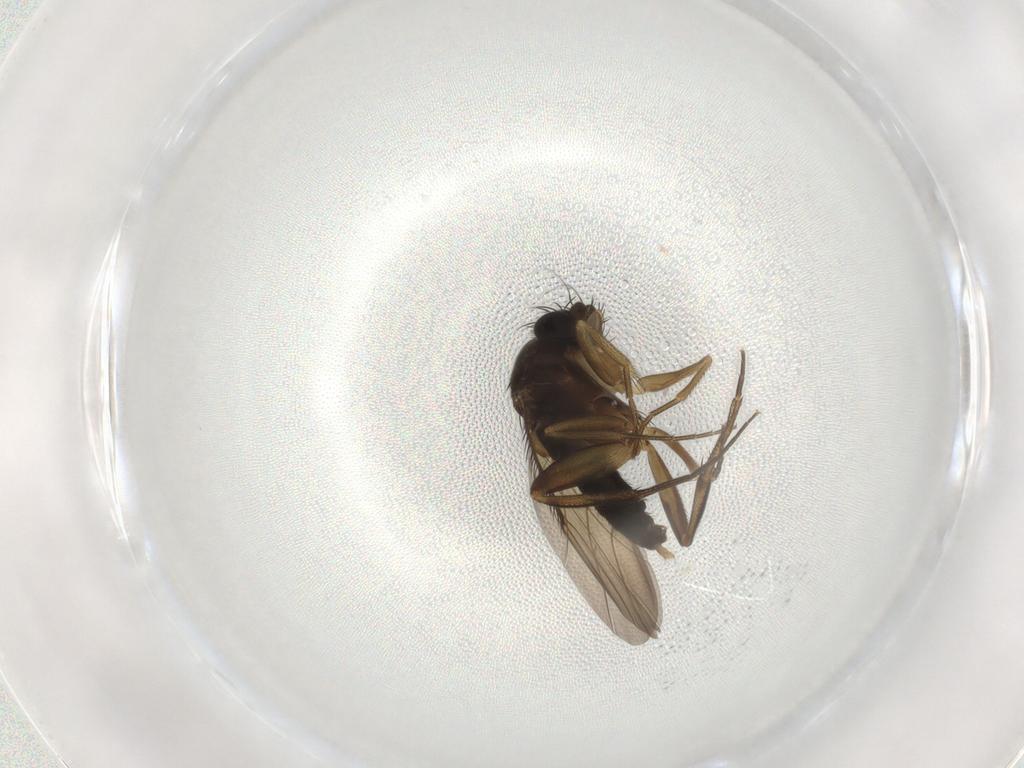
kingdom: Animalia
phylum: Arthropoda
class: Insecta
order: Diptera
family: Phoridae
